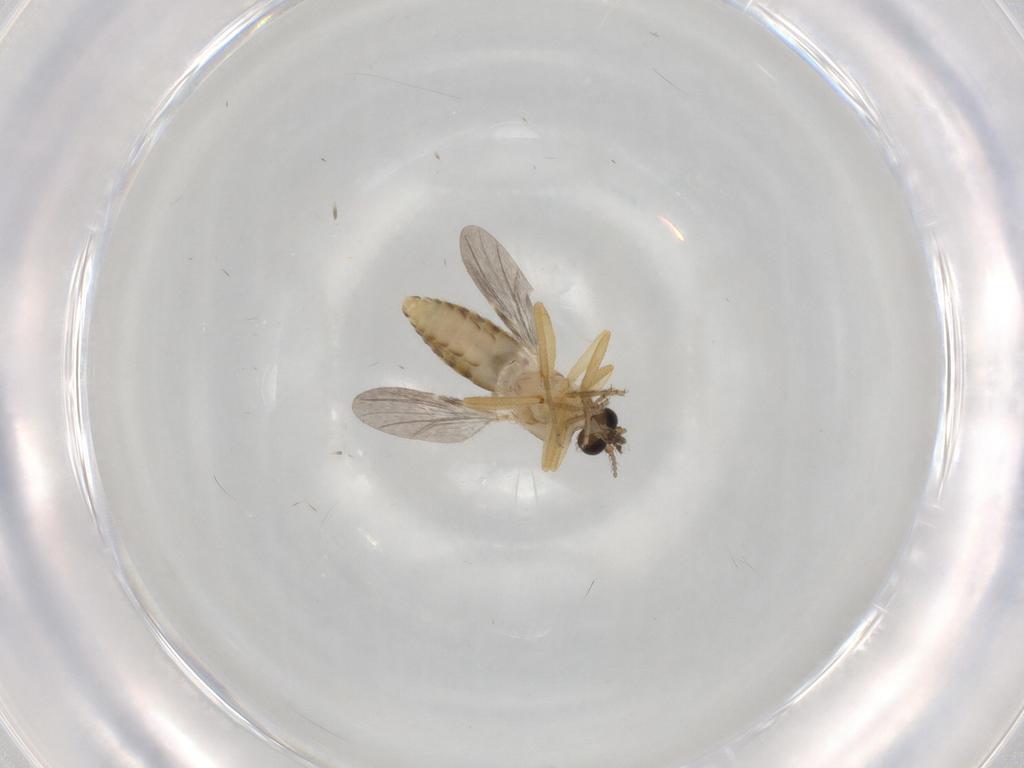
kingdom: Animalia
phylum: Arthropoda
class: Insecta
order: Diptera
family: Ceratopogonidae
